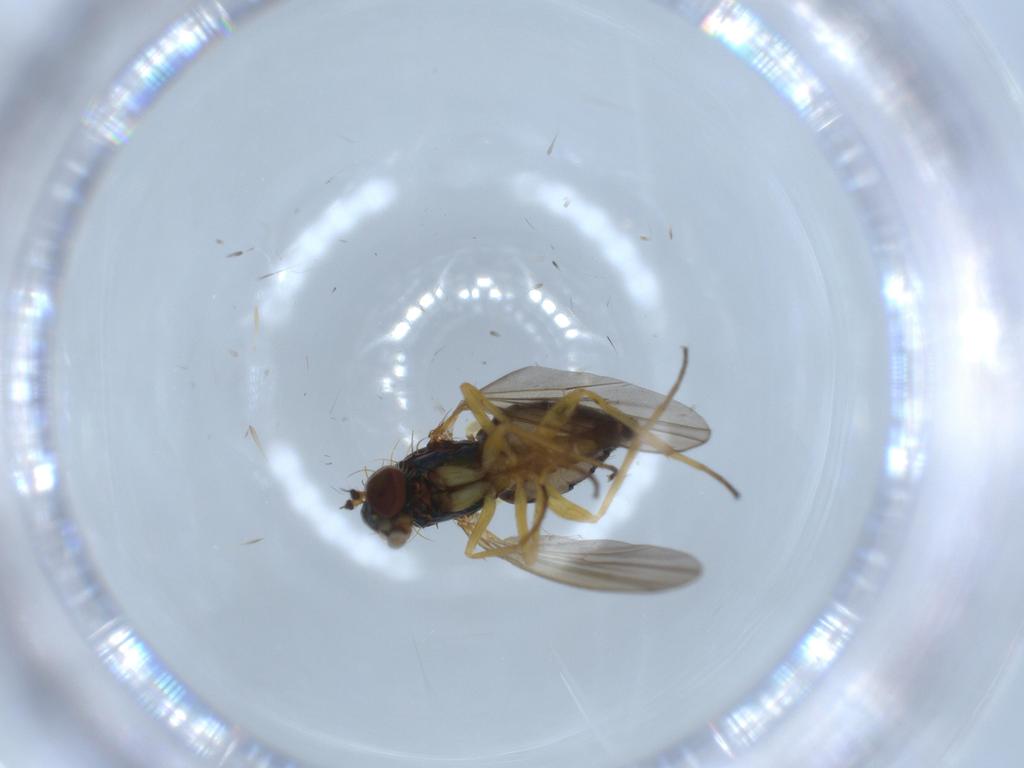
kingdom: Animalia
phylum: Arthropoda
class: Insecta
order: Diptera
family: Dolichopodidae
